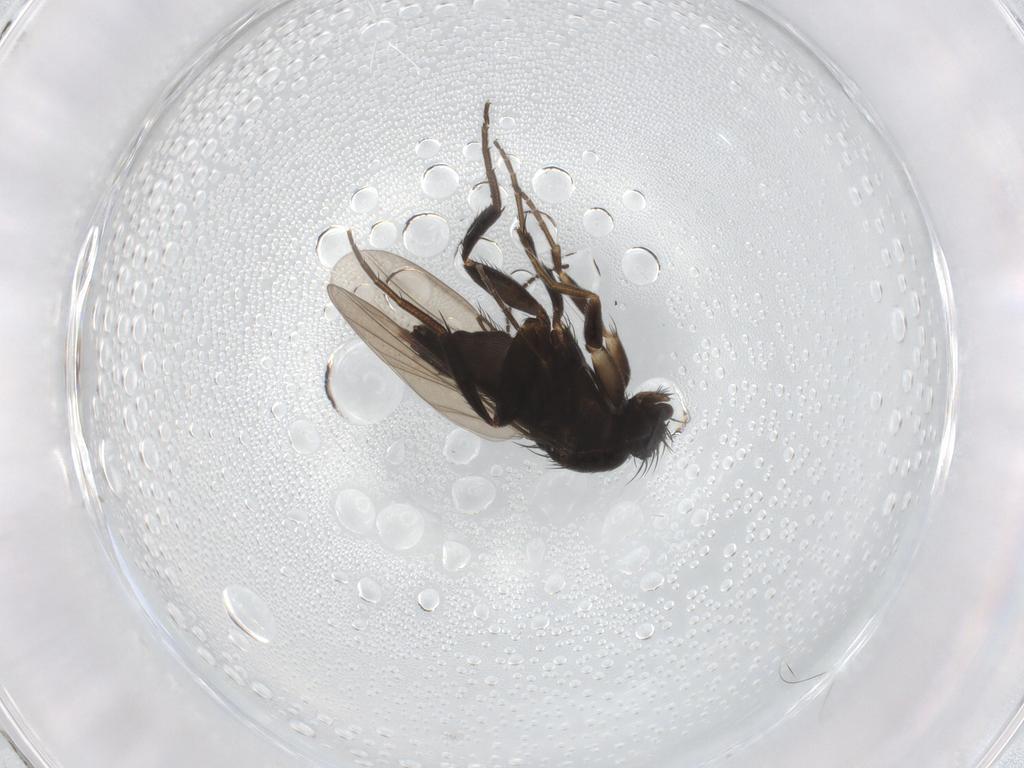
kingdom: Animalia
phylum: Arthropoda
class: Insecta
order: Diptera
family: Phoridae
